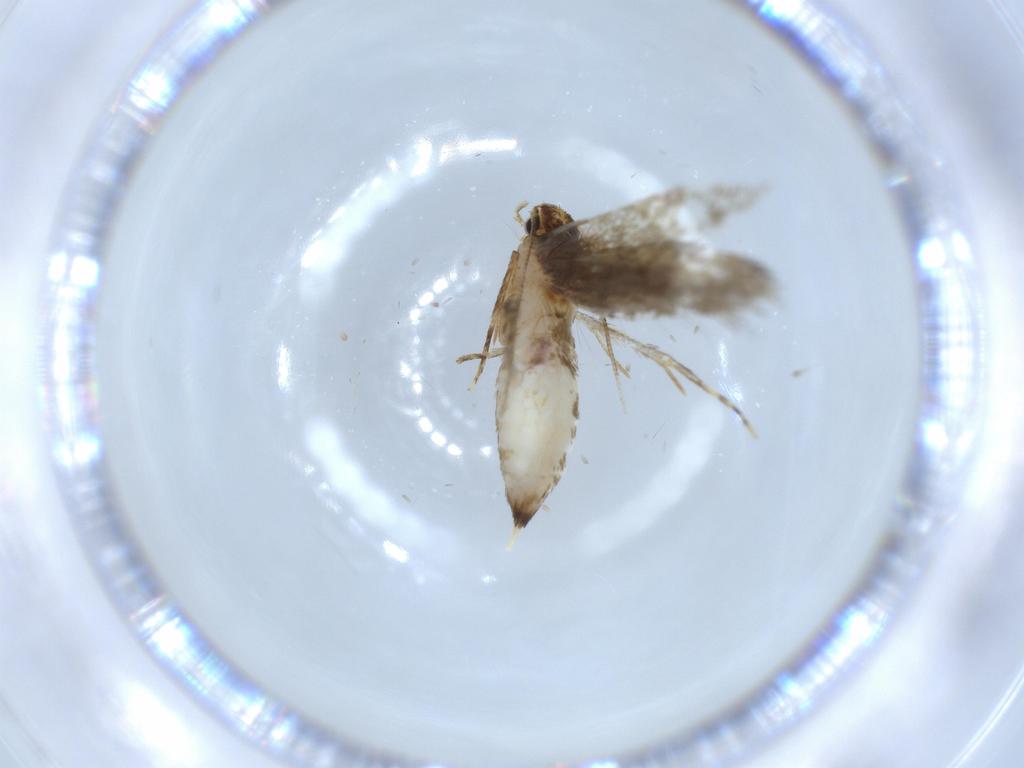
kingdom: Animalia
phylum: Arthropoda
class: Insecta
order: Lepidoptera
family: Tineidae
